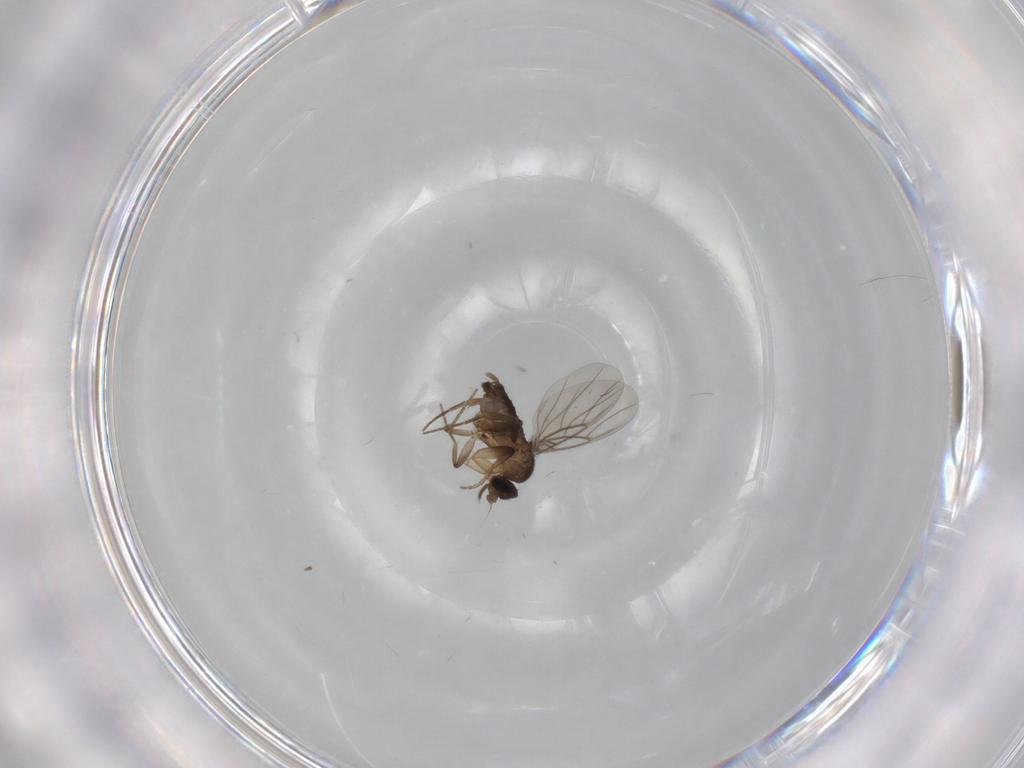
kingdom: Animalia
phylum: Arthropoda
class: Insecta
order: Diptera
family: Phoridae
